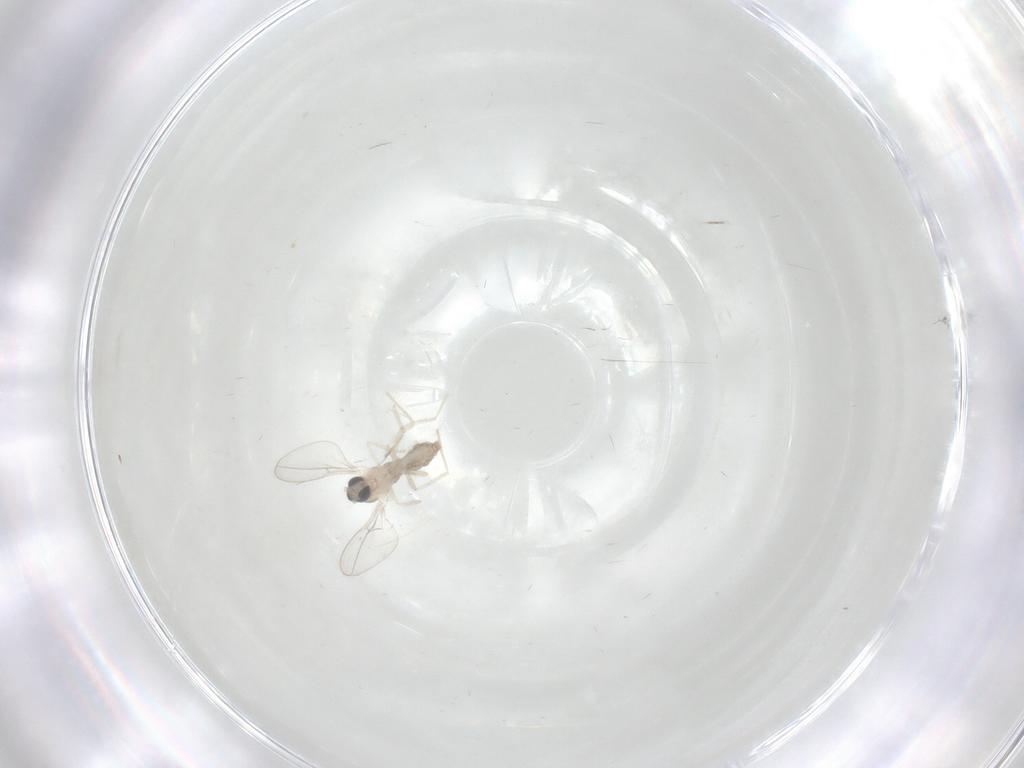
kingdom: Animalia
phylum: Arthropoda
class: Insecta
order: Diptera
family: Cecidomyiidae
